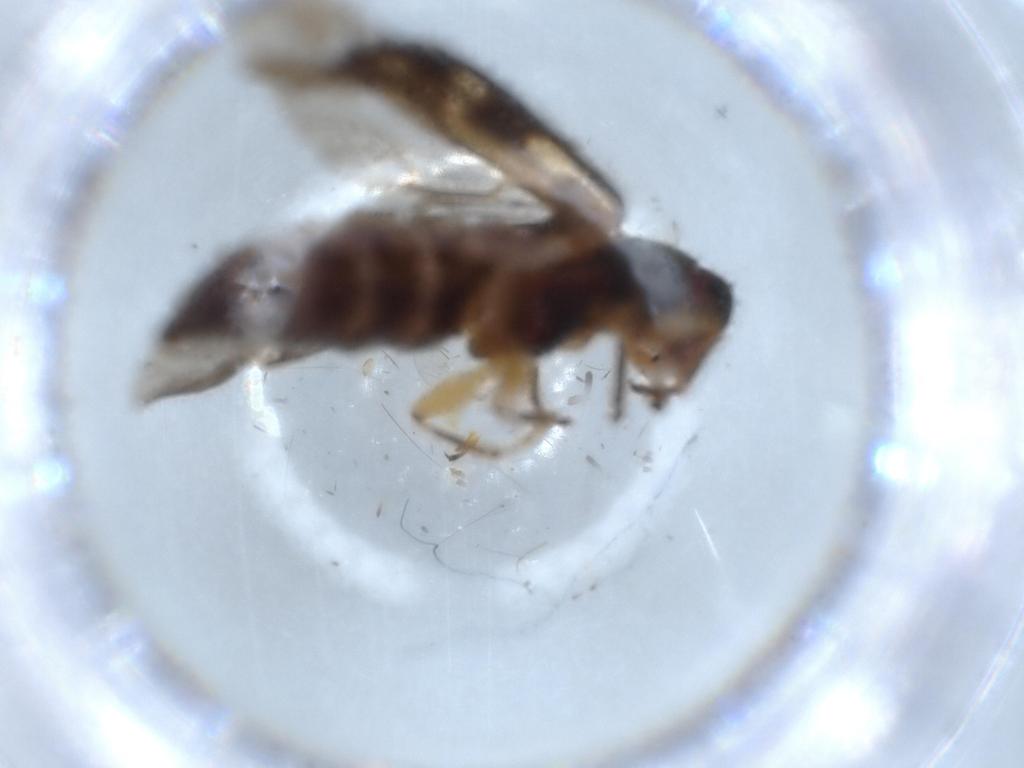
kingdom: Animalia
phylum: Arthropoda
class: Insecta
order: Coleoptera
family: Cleridae
